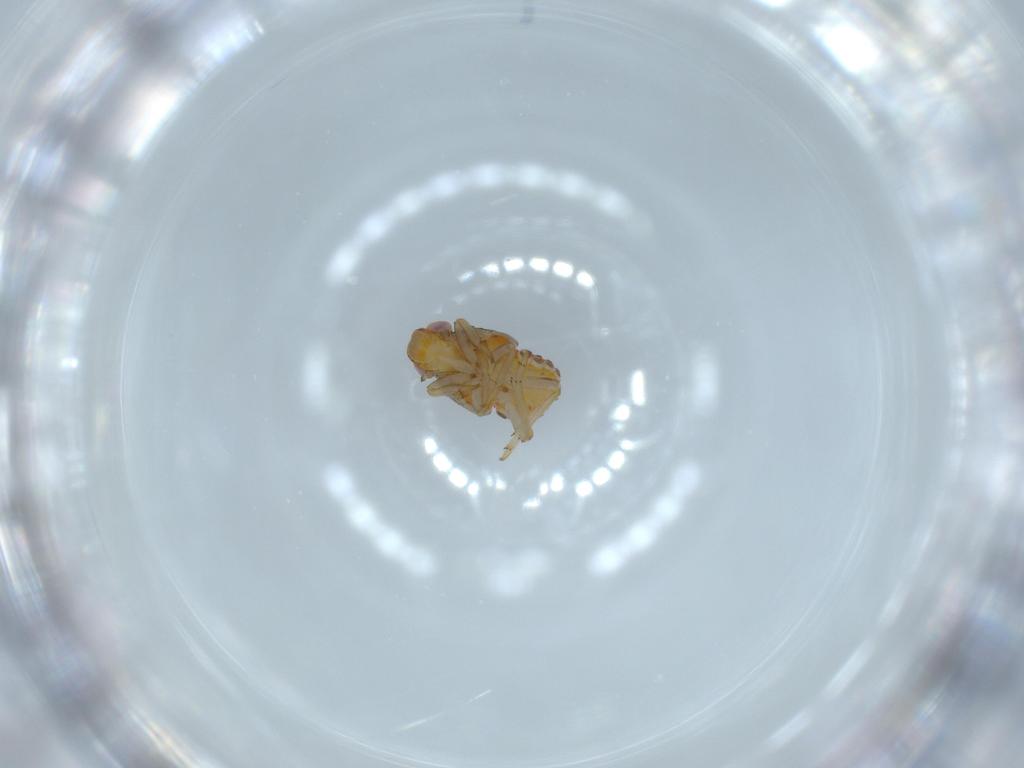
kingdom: Animalia
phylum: Arthropoda
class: Insecta
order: Hemiptera
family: Issidae
